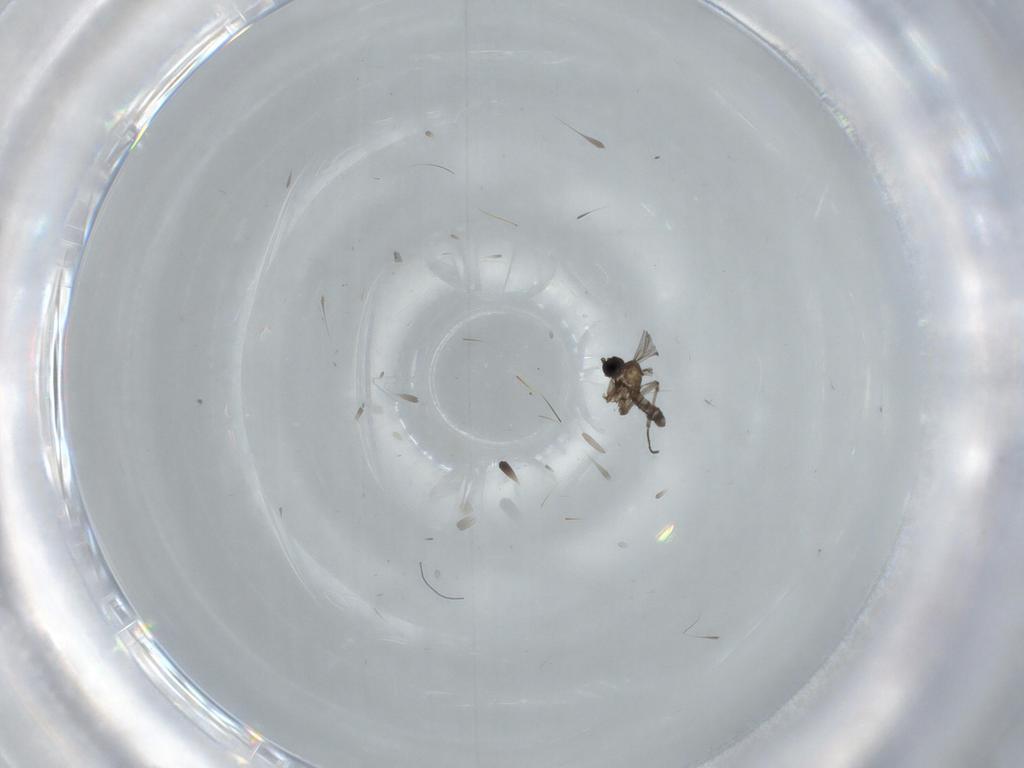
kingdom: Animalia
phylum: Arthropoda
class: Insecta
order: Diptera
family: Sciaridae
